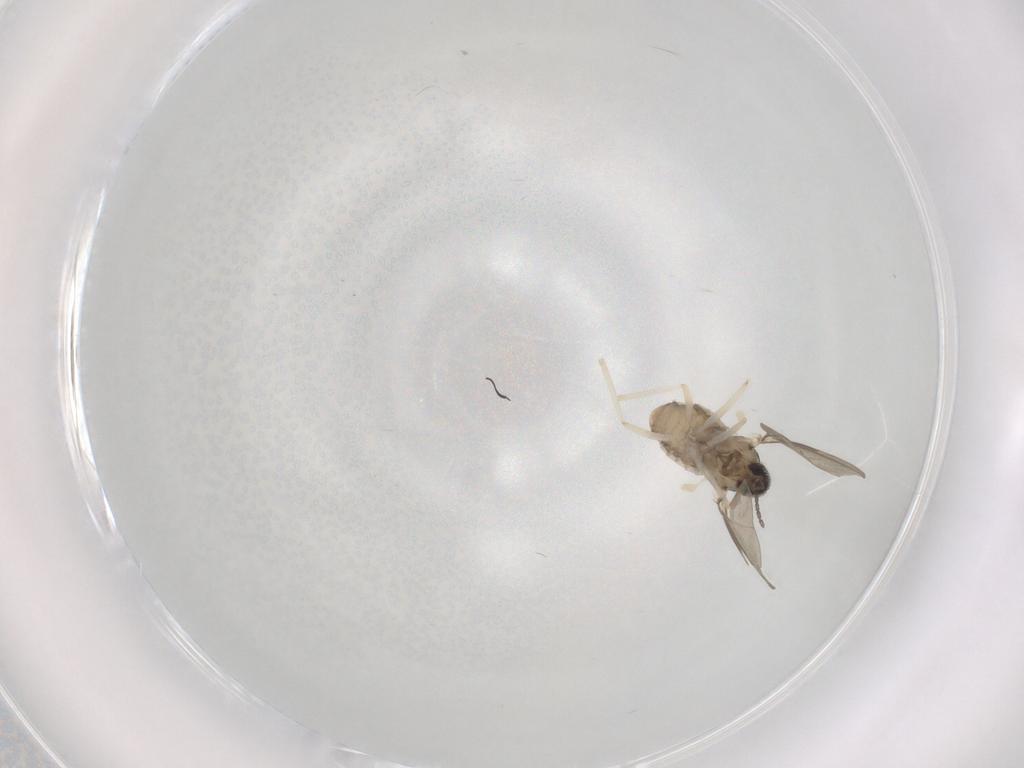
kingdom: Animalia
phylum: Arthropoda
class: Insecta
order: Diptera
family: Cecidomyiidae
